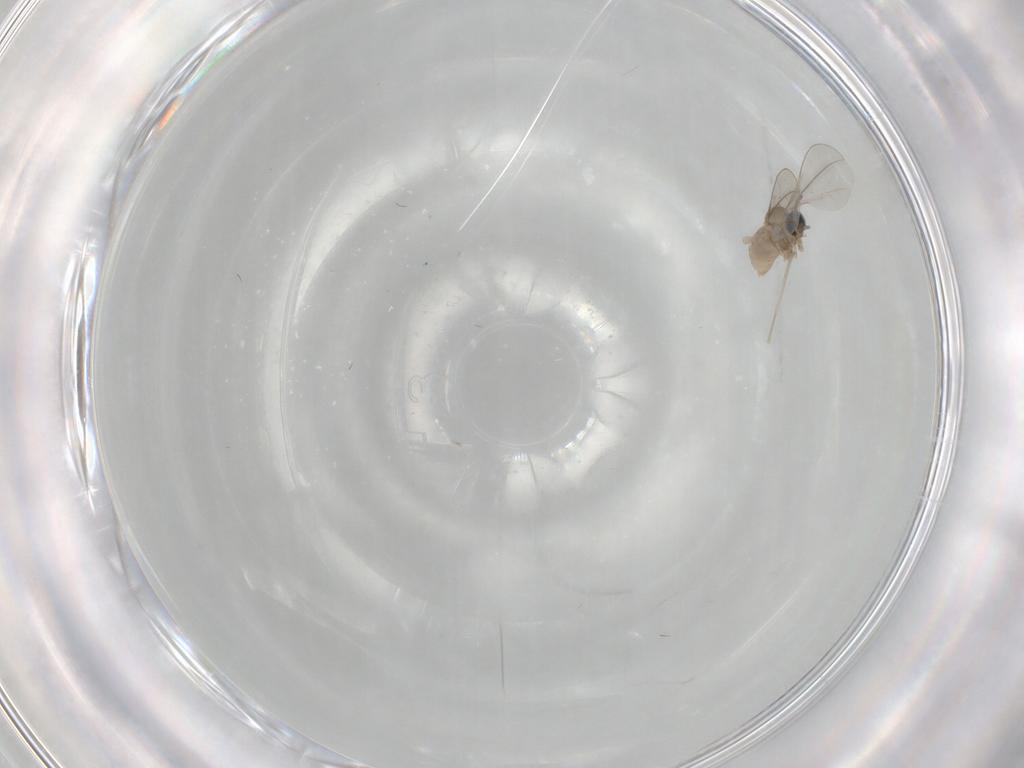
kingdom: Animalia
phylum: Arthropoda
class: Insecta
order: Diptera
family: Cecidomyiidae
